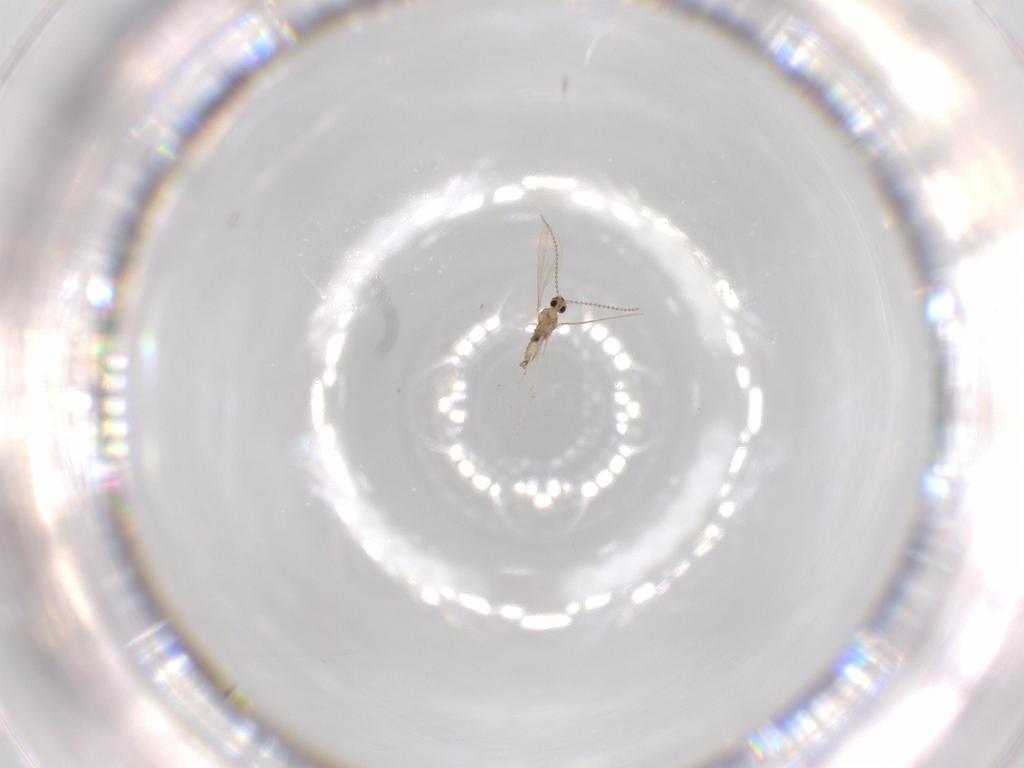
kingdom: Animalia
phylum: Arthropoda
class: Insecta
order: Diptera
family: Cecidomyiidae
